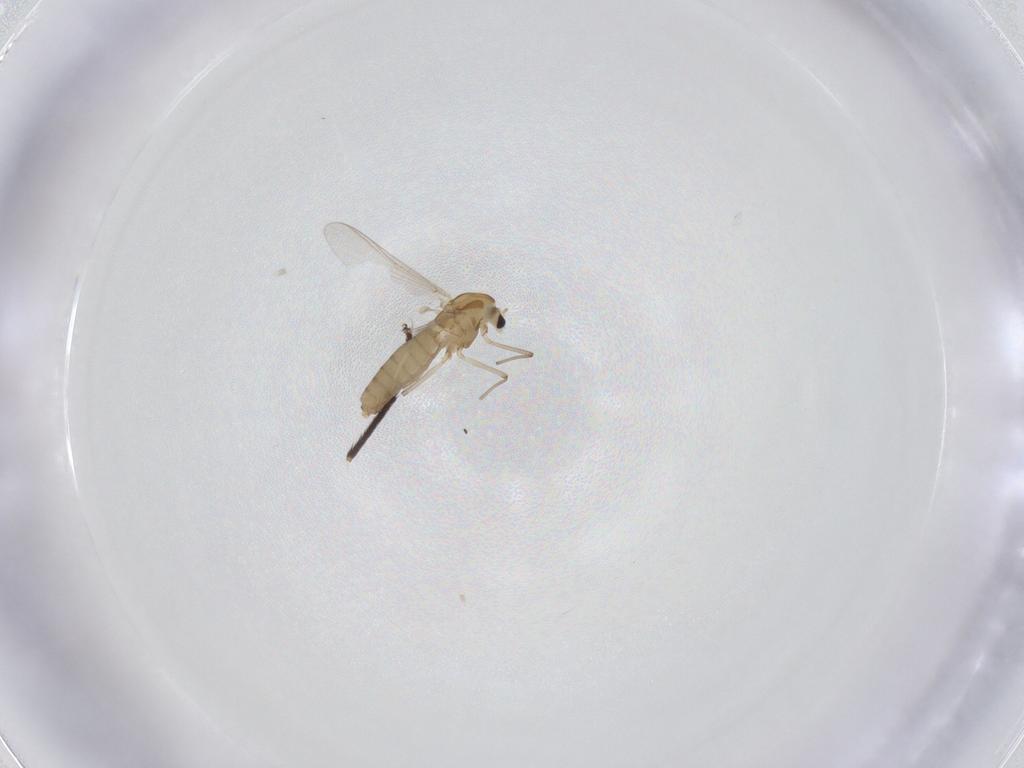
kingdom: Animalia
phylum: Arthropoda
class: Insecta
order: Diptera
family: Chironomidae
